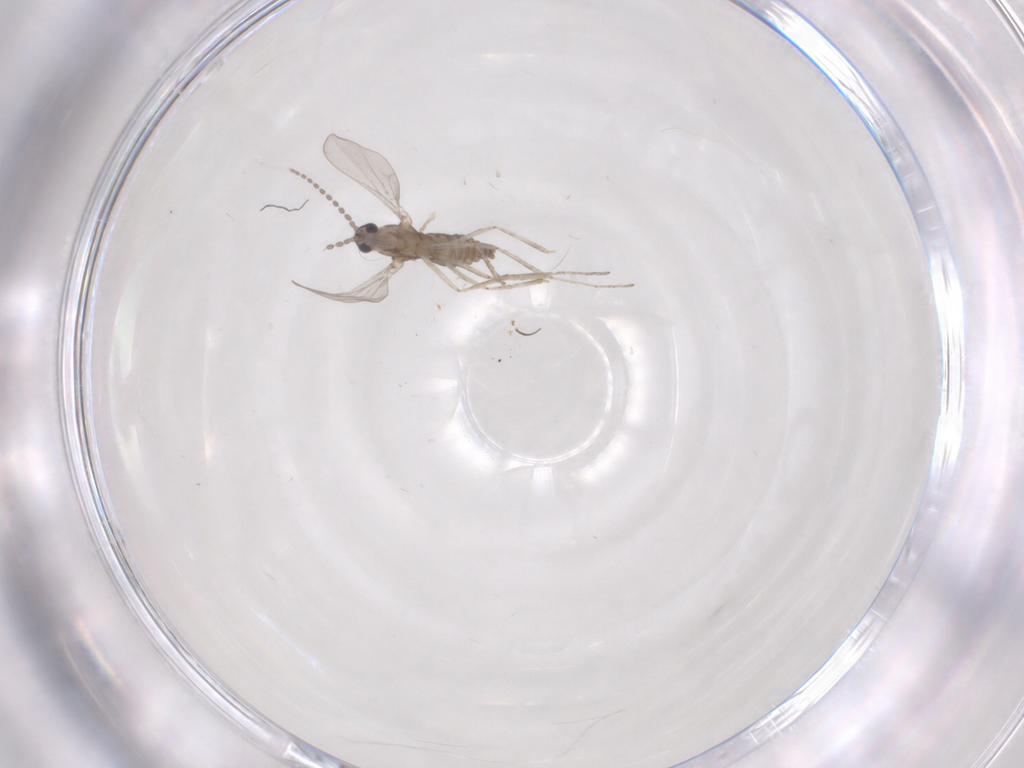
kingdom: Animalia
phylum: Arthropoda
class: Insecta
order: Diptera
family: Cecidomyiidae
